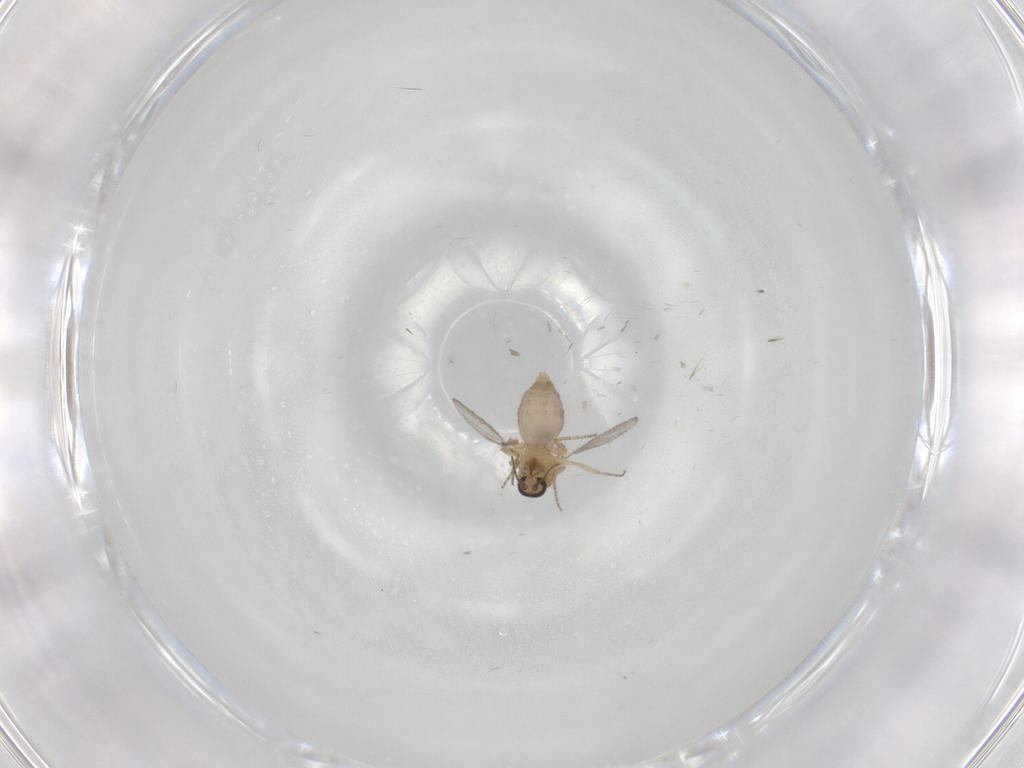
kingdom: Animalia
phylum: Arthropoda
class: Insecta
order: Diptera
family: Ceratopogonidae
